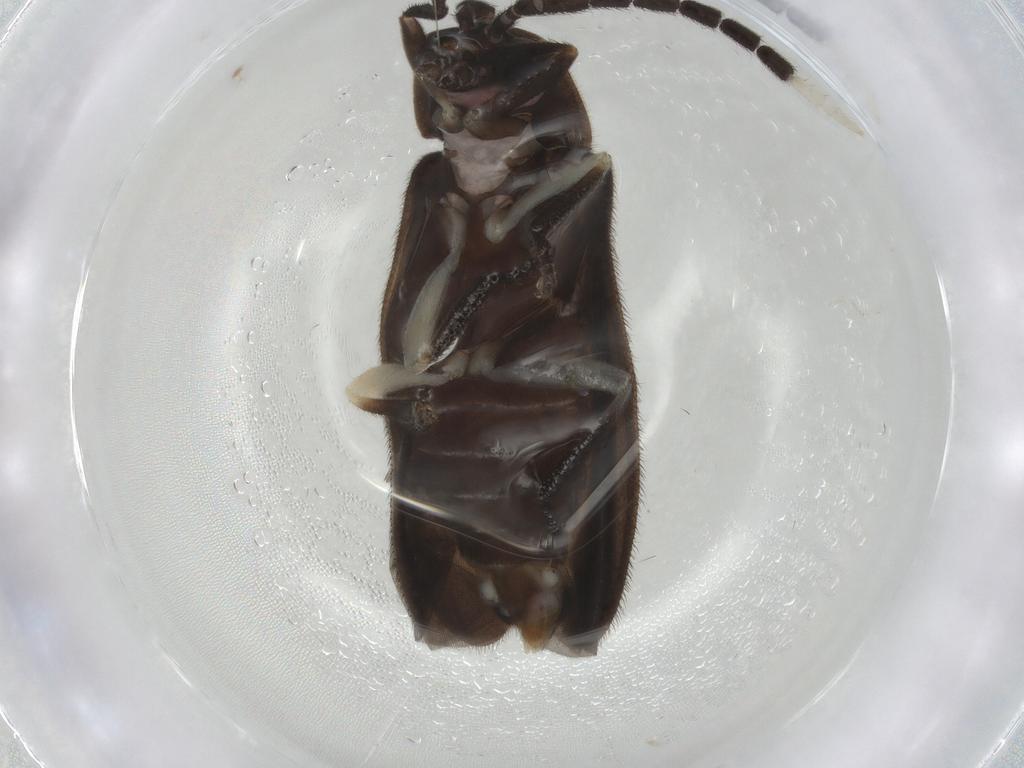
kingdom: Animalia
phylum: Arthropoda
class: Insecta
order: Coleoptera
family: Lampyridae
